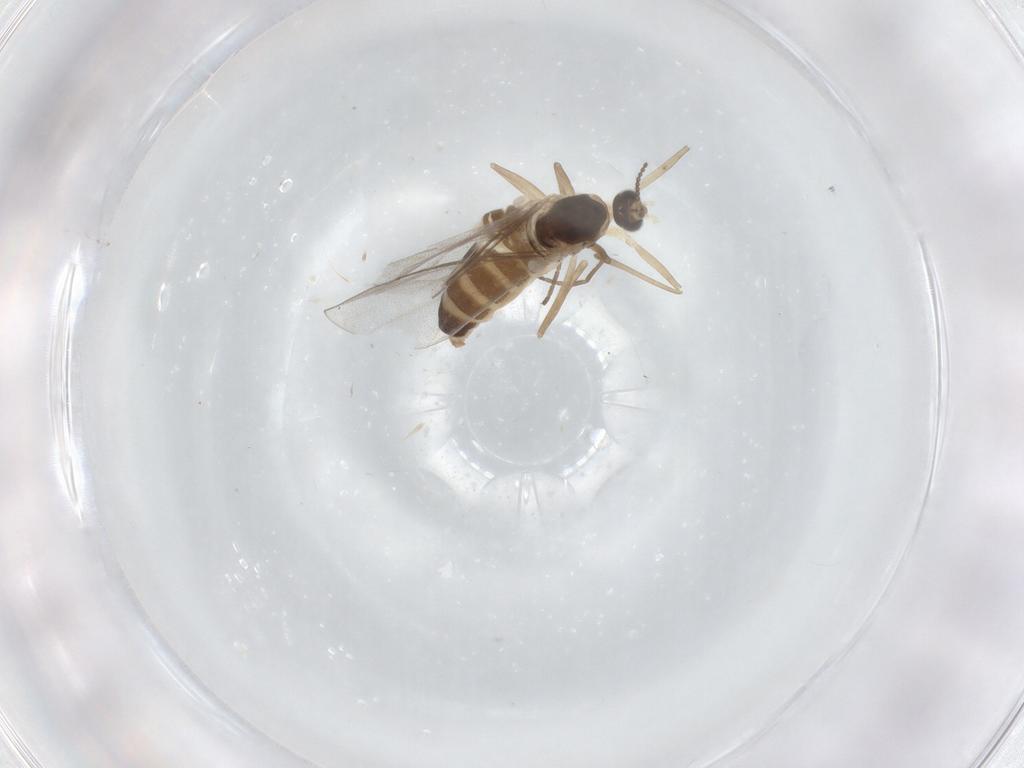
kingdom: Animalia
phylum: Arthropoda
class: Insecta
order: Diptera
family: Cecidomyiidae
